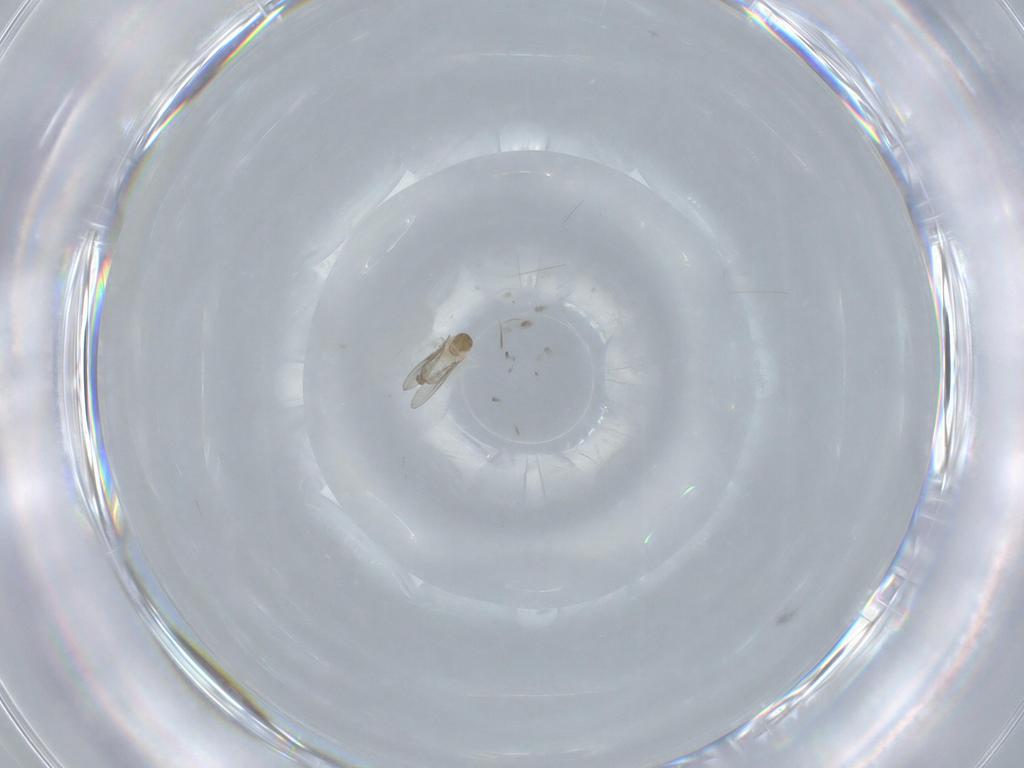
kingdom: Animalia
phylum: Arthropoda
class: Insecta
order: Diptera
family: Cecidomyiidae
